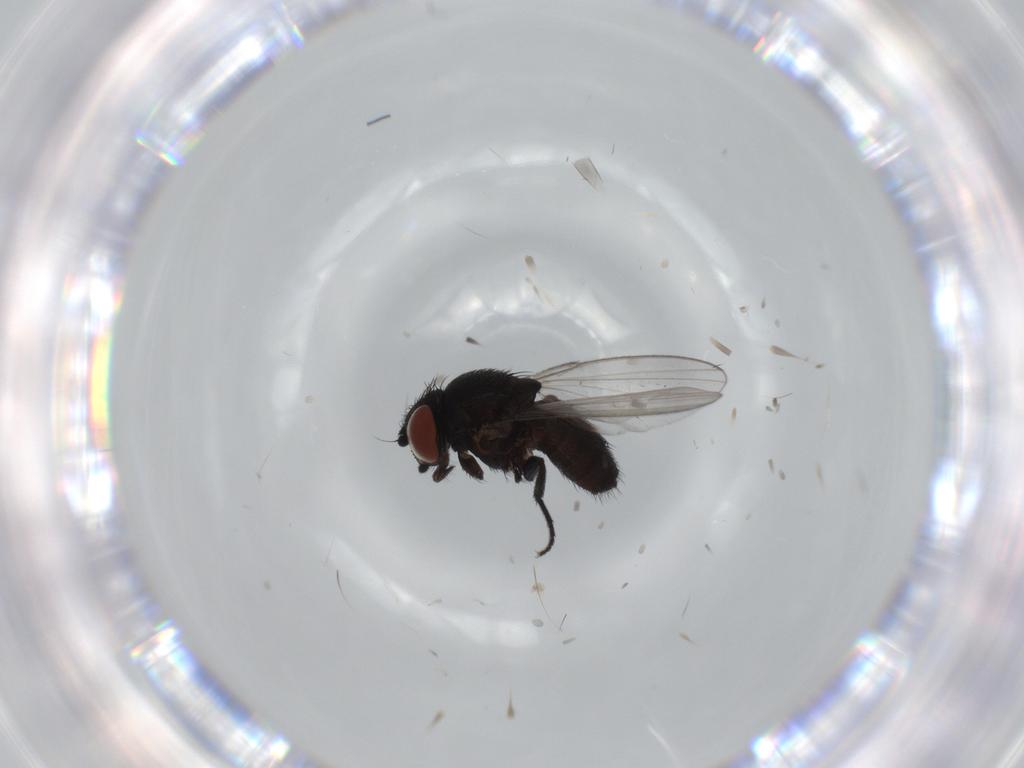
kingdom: Animalia
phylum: Arthropoda
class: Insecta
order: Diptera
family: Milichiidae
